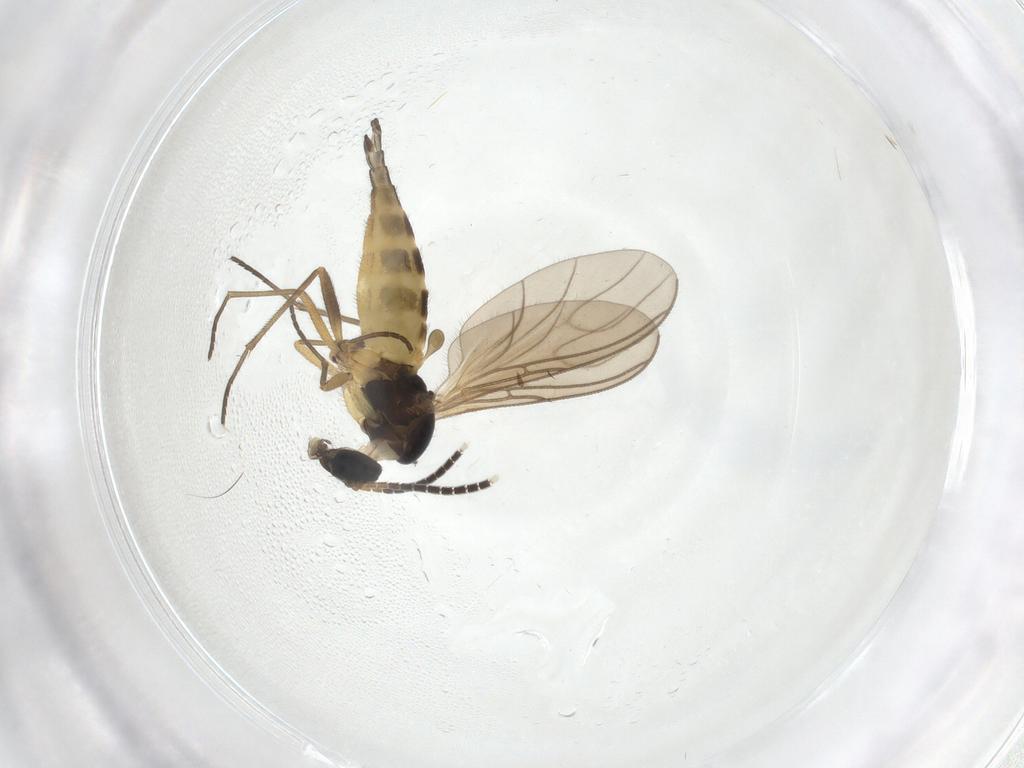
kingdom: Animalia
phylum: Arthropoda
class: Insecta
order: Diptera
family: Sciaridae
